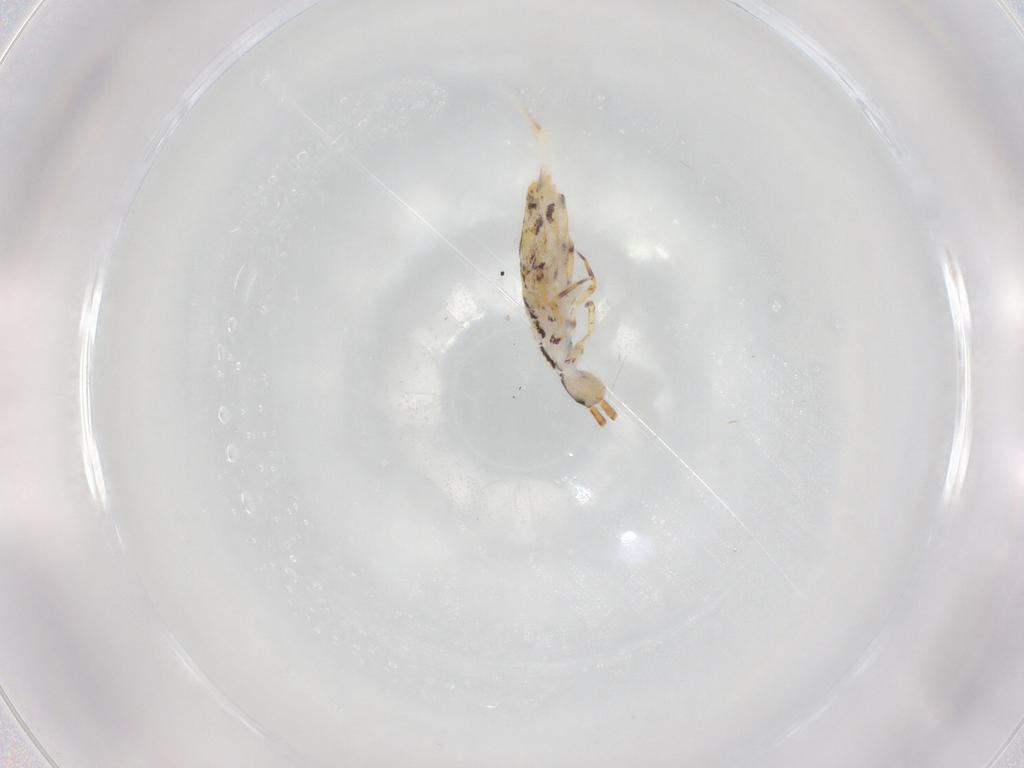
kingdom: Animalia
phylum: Arthropoda
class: Collembola
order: Entomobryomorpha
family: Entomobryidae
